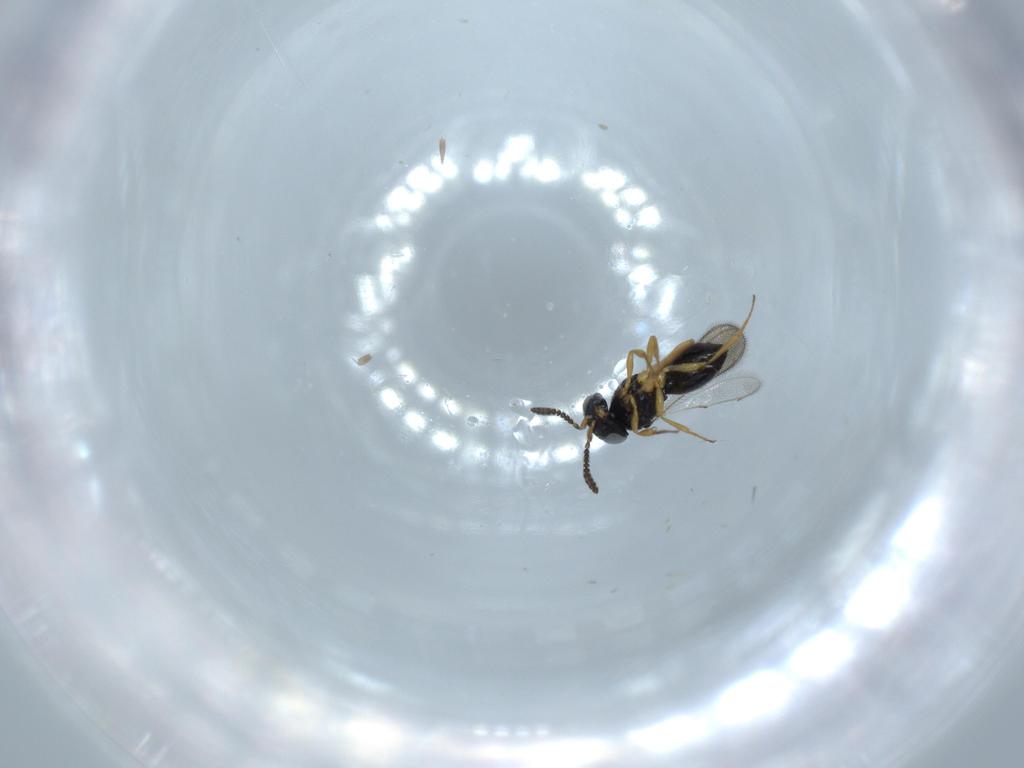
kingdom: Animalia
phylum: Arthropoda
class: Insecta
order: Hymenoptera
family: Scelionidae
